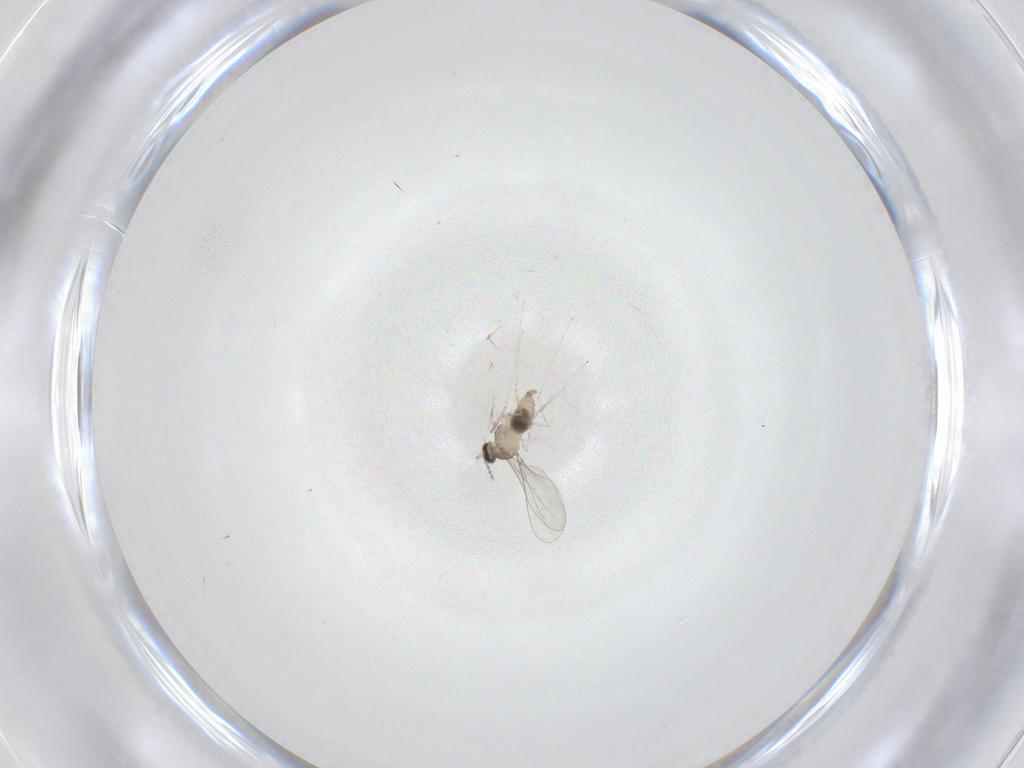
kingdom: Animalia
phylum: Arthropoda
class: Insecta
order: Diptera
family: Cecidomyiidae
